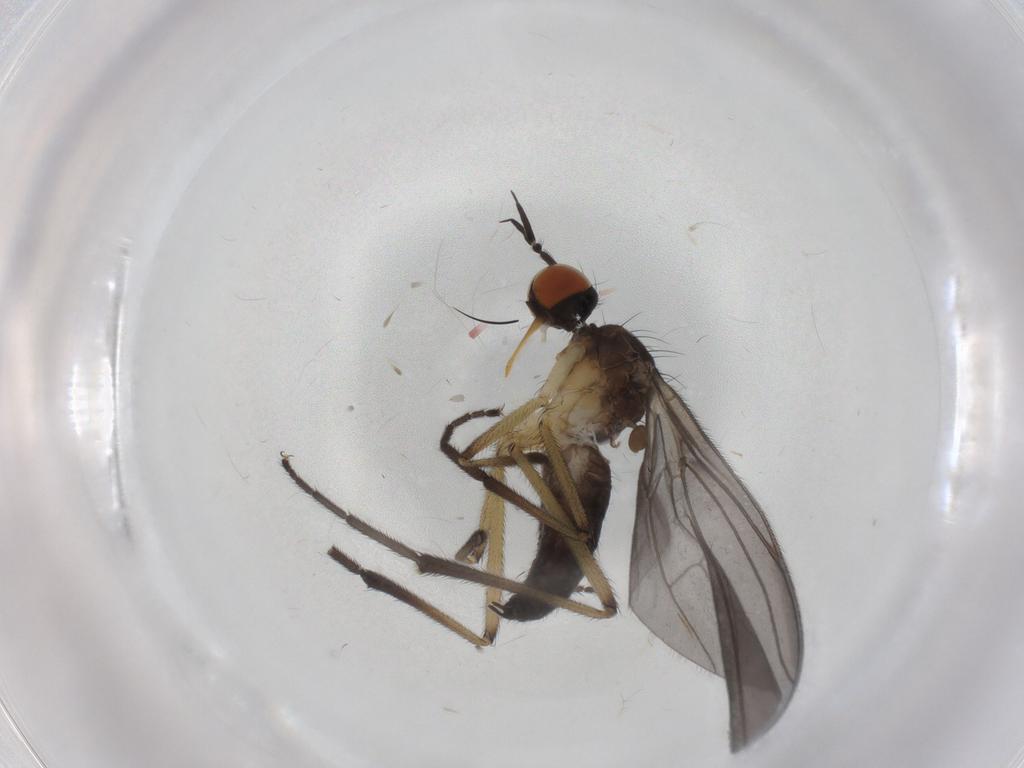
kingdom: Animalia
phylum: Arthropoda
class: Insecta
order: Diptera
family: Empididae
